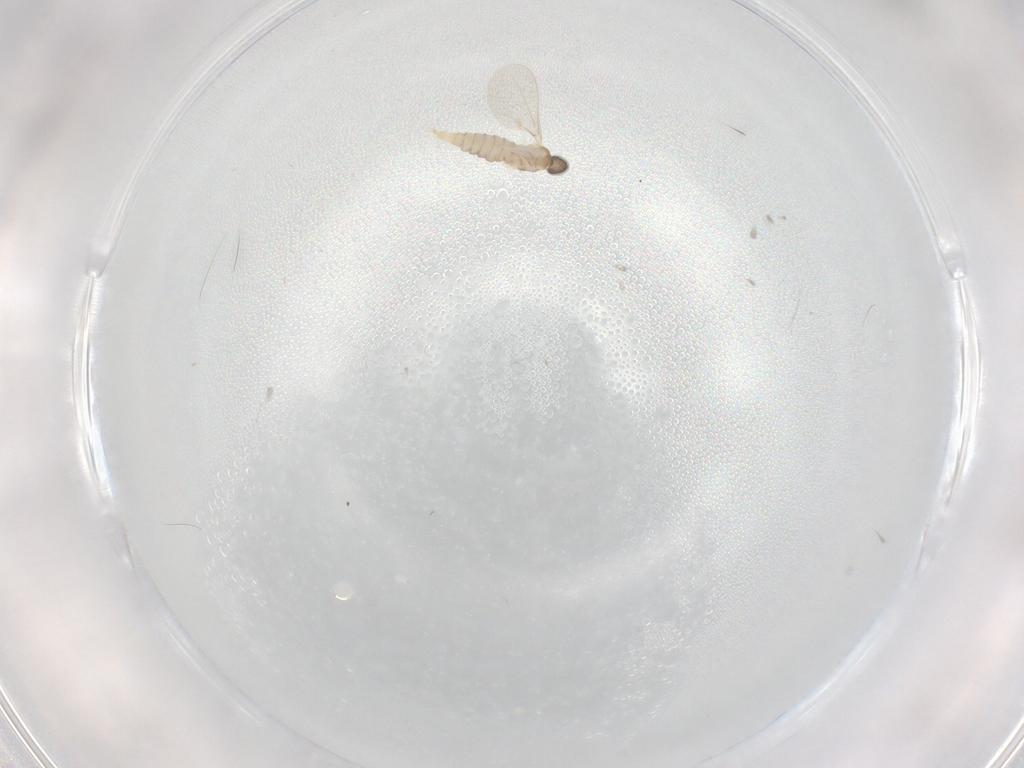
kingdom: Animalia
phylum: Arthropoda
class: Insecta
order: Diptera
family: Cecidomyiidae
